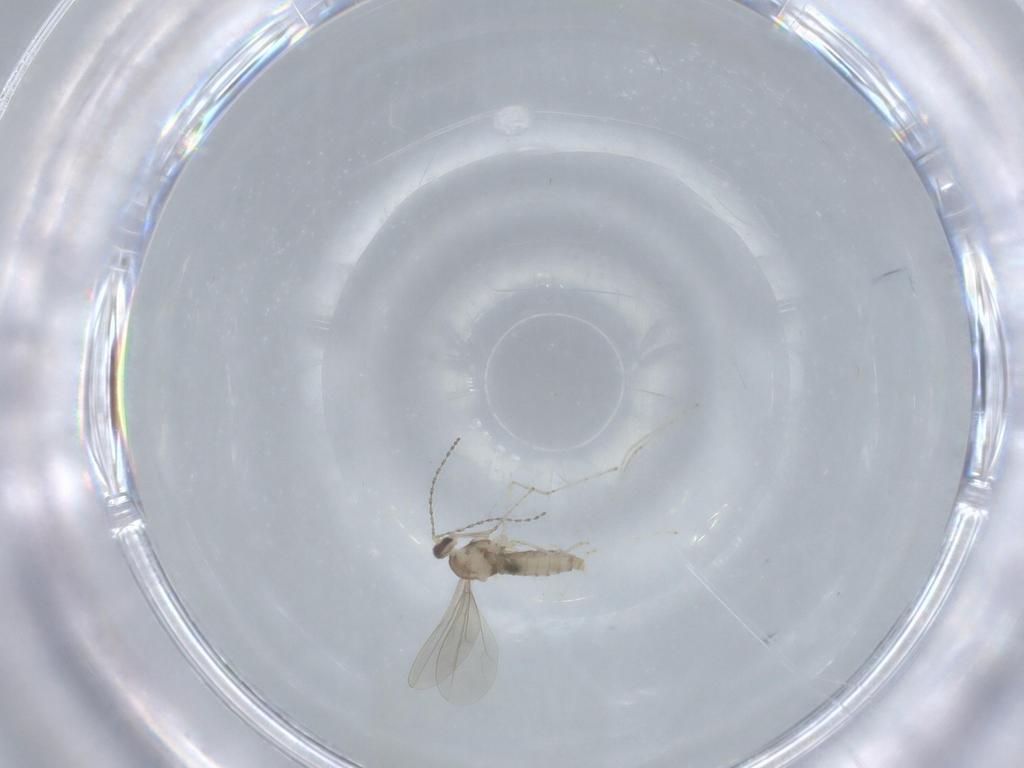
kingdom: Animalia
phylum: Arthropoda
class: Insecta
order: Diptera
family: Cecidomyiidae
